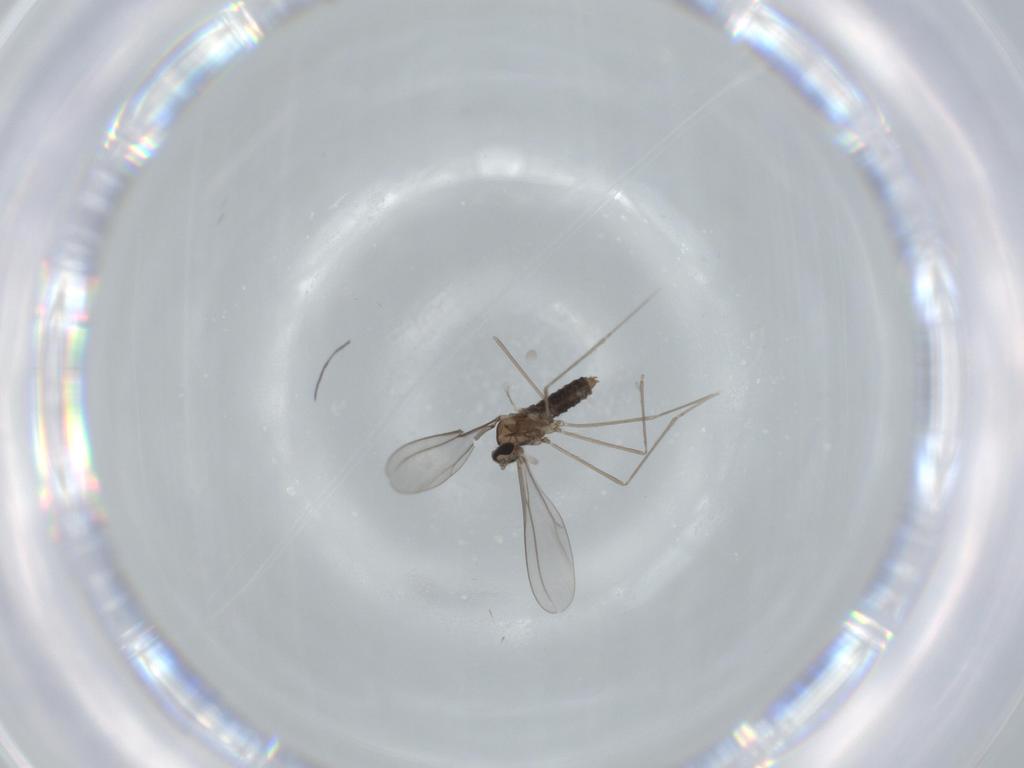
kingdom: Animalia
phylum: Arthropoda
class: Insecta
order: Diptera
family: Cecidomyiidae
